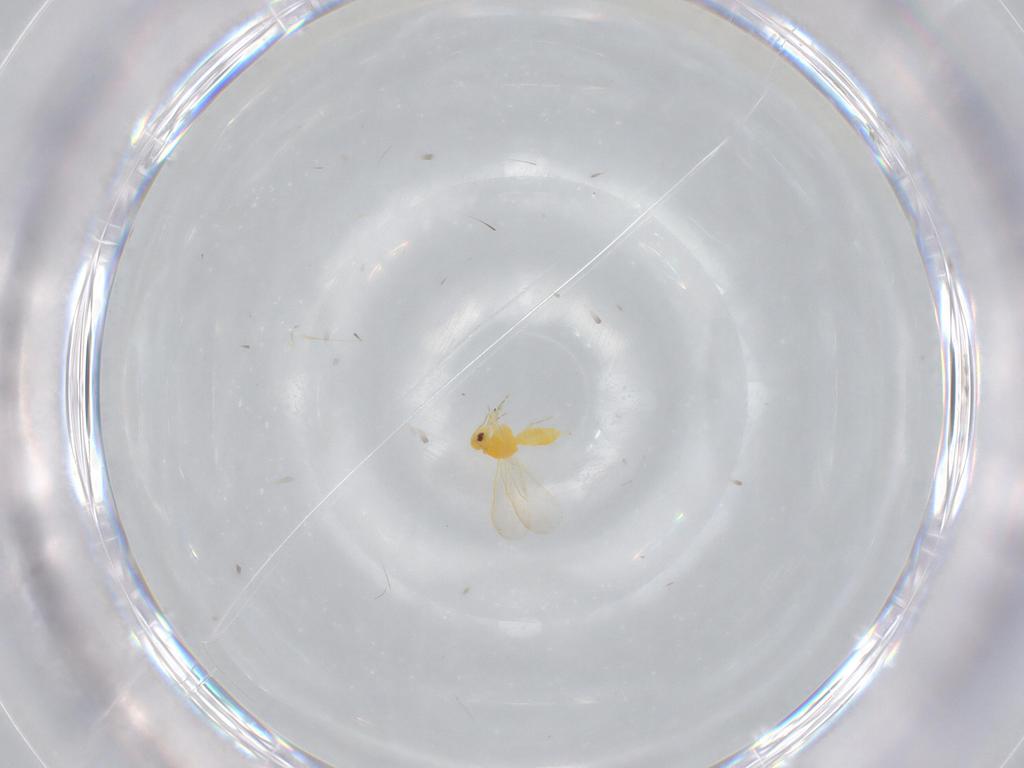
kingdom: Animalia
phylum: Arthropoda
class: Insecta
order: Hemiptera
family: Aleyrodidae
